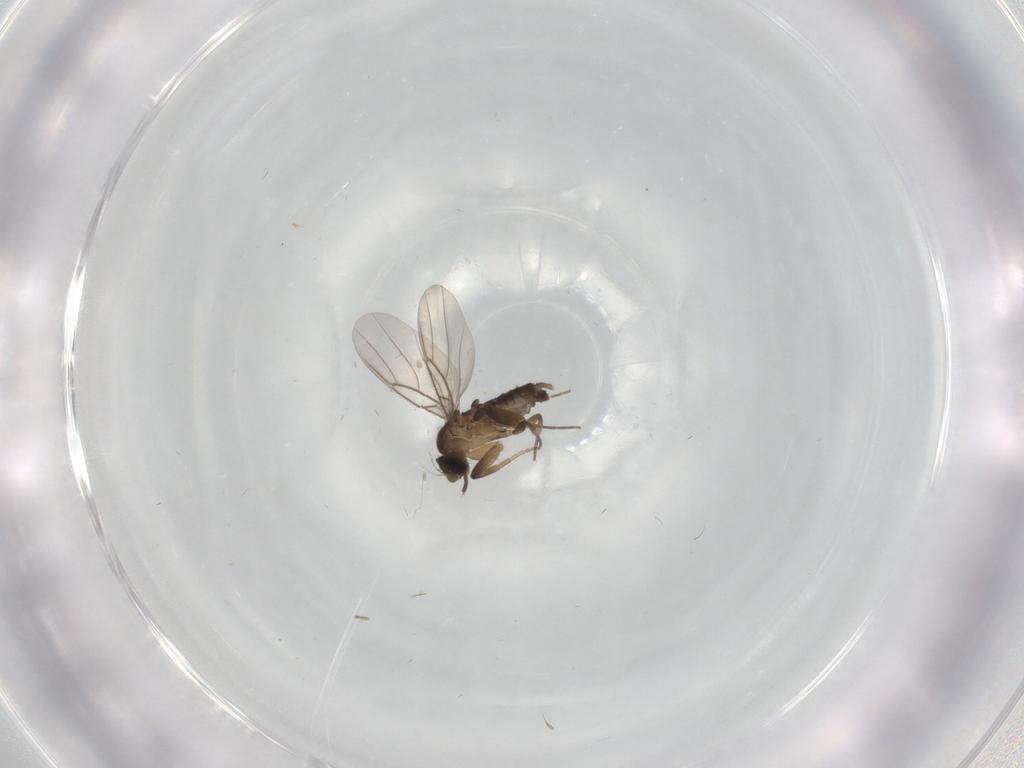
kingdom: Animalia
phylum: Arthropoda
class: Insecta
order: Diptera
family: Phoridae
